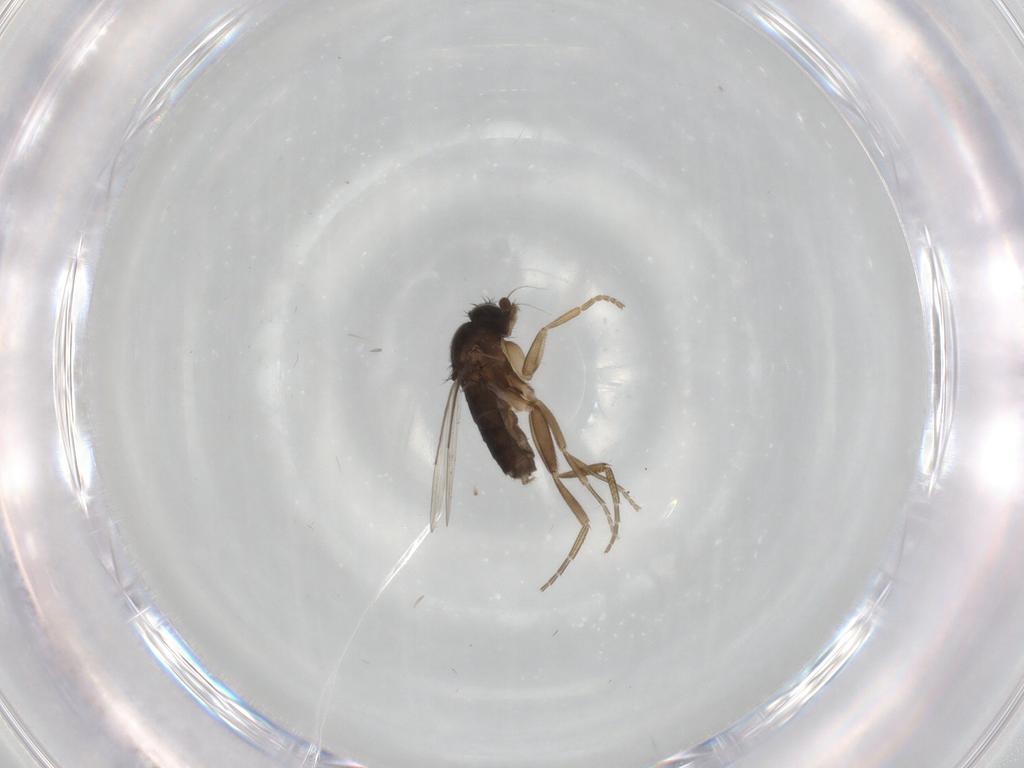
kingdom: Animalia
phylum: Arthropoda
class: Insecta
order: Diptera
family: Phoridae
